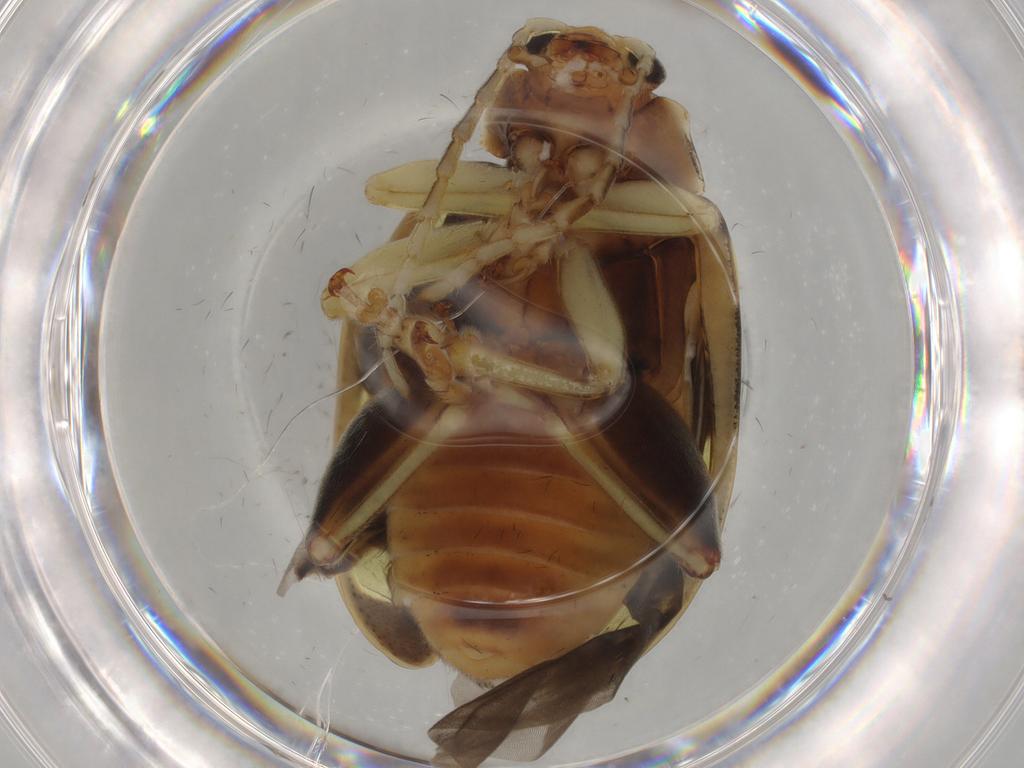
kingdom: Animalia
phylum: Arthropoda
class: Insecta
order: Coleoptera
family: Chrysomelidae
